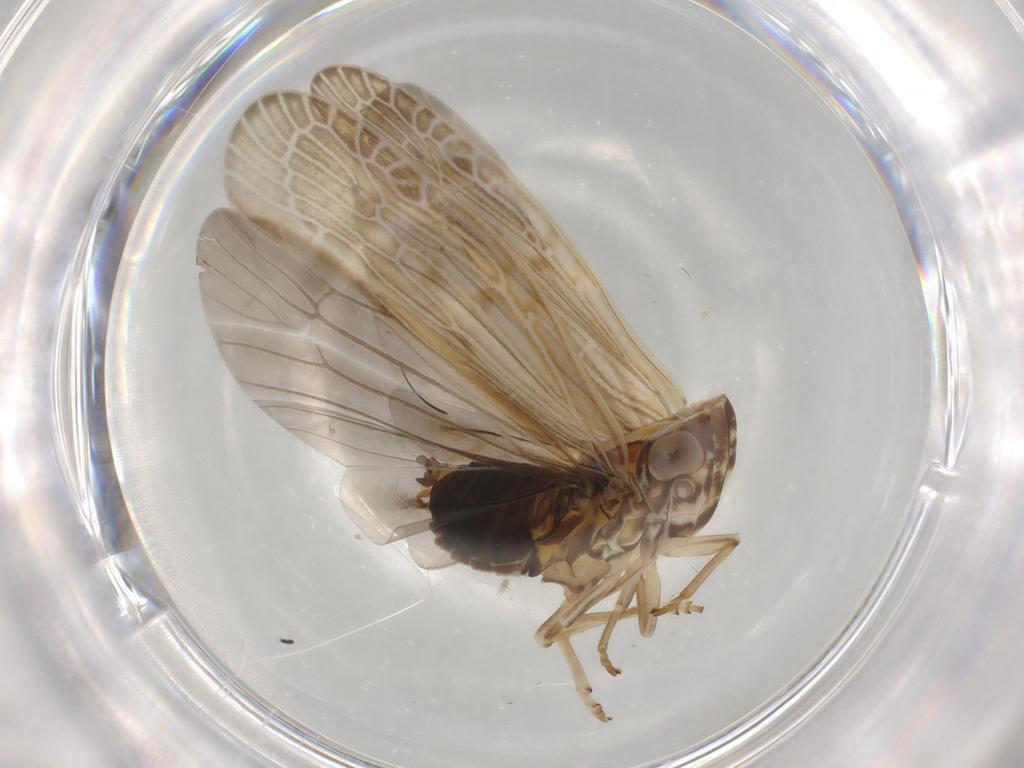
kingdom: Animalia
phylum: Arthropoda
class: Insecta
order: Hemiptera
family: Achilidae
